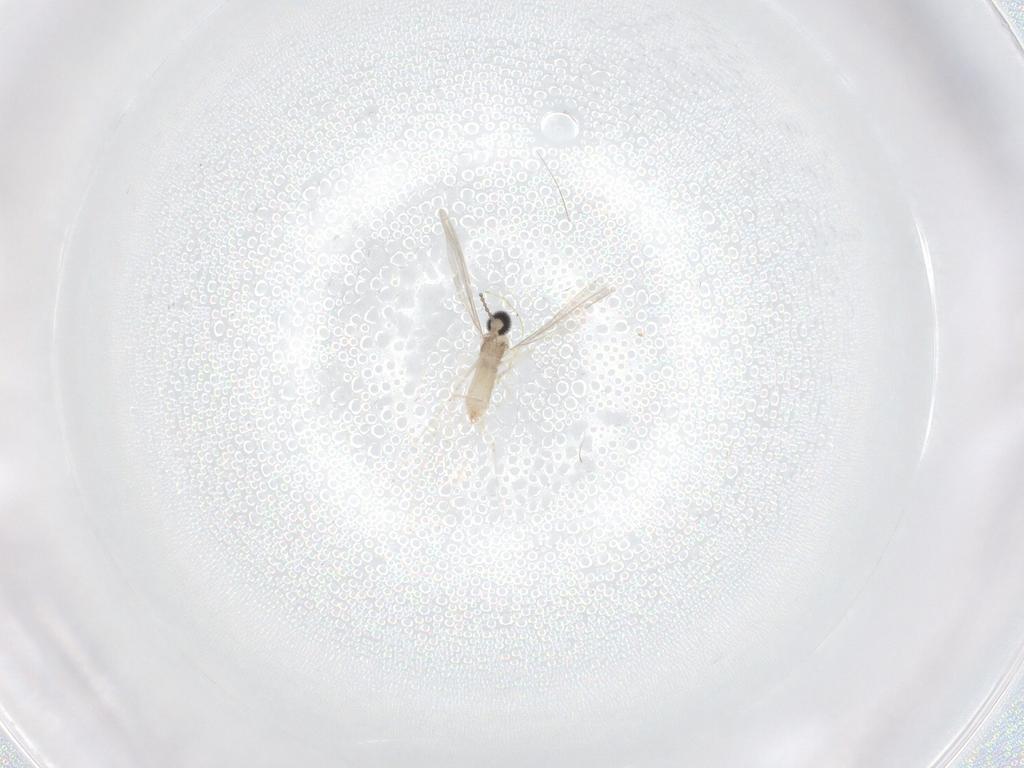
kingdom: Animalia
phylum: Arthropoda
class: Insecta
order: Diptera
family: Cecidomyiidae
